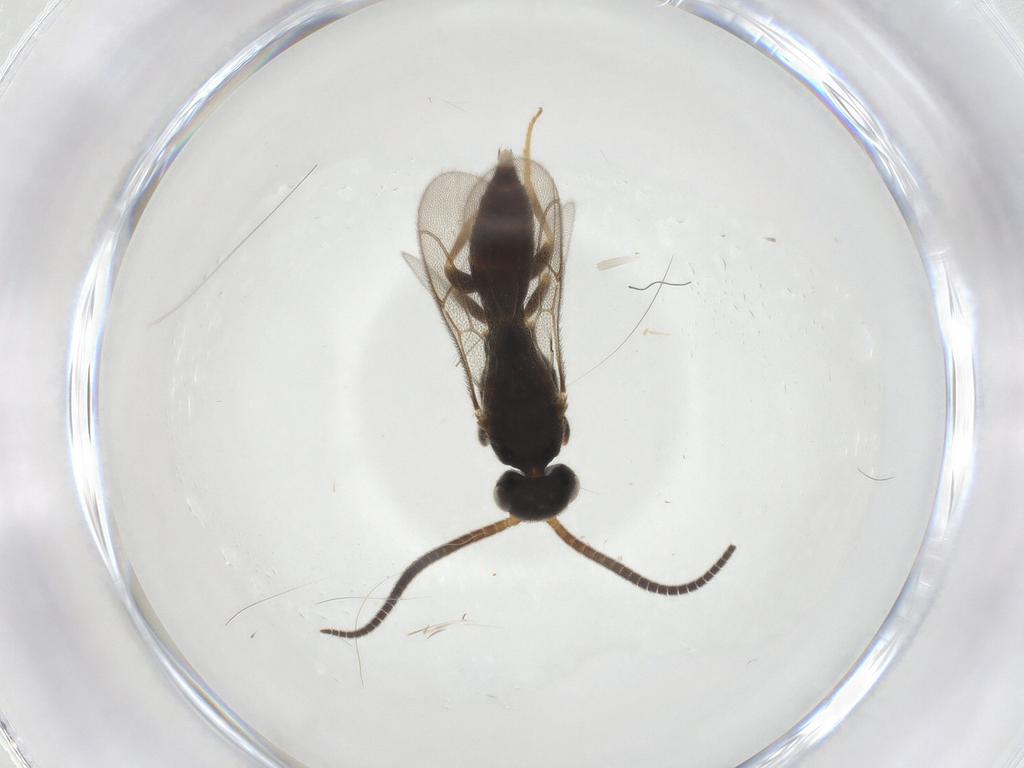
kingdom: Animalia
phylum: Arthropoda
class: Insecta
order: Hymenoptera
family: Sclerogibbidae
